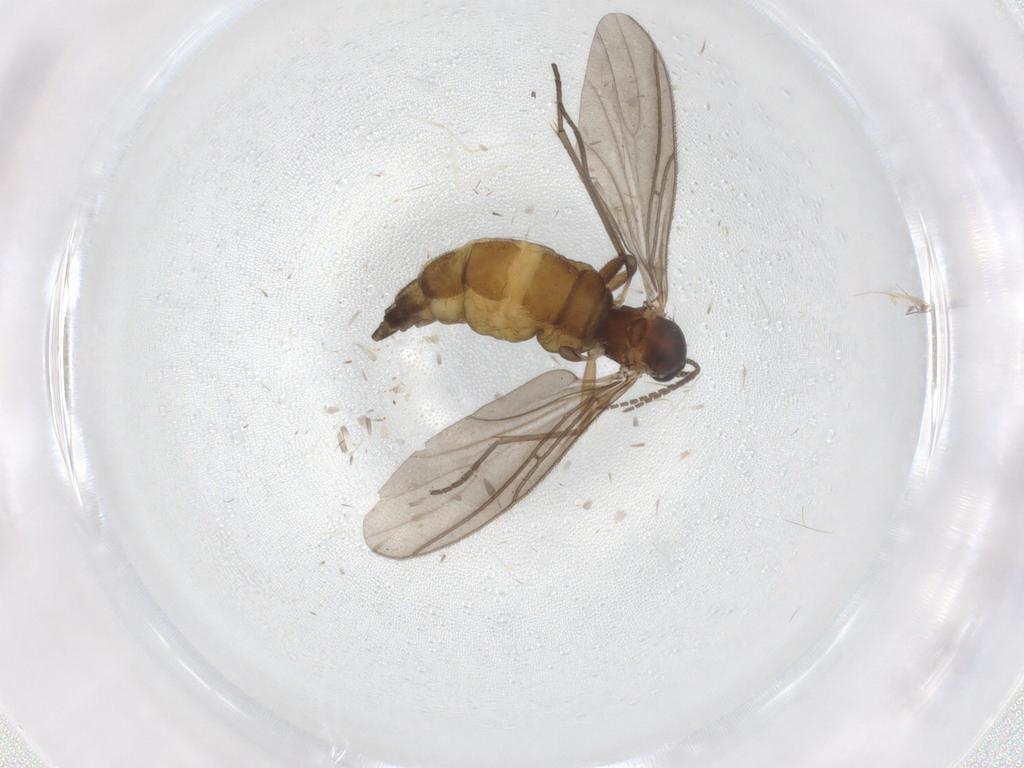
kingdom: Animalia
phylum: Arthropoda
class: Insecta
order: Diptera
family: Sciaridae
